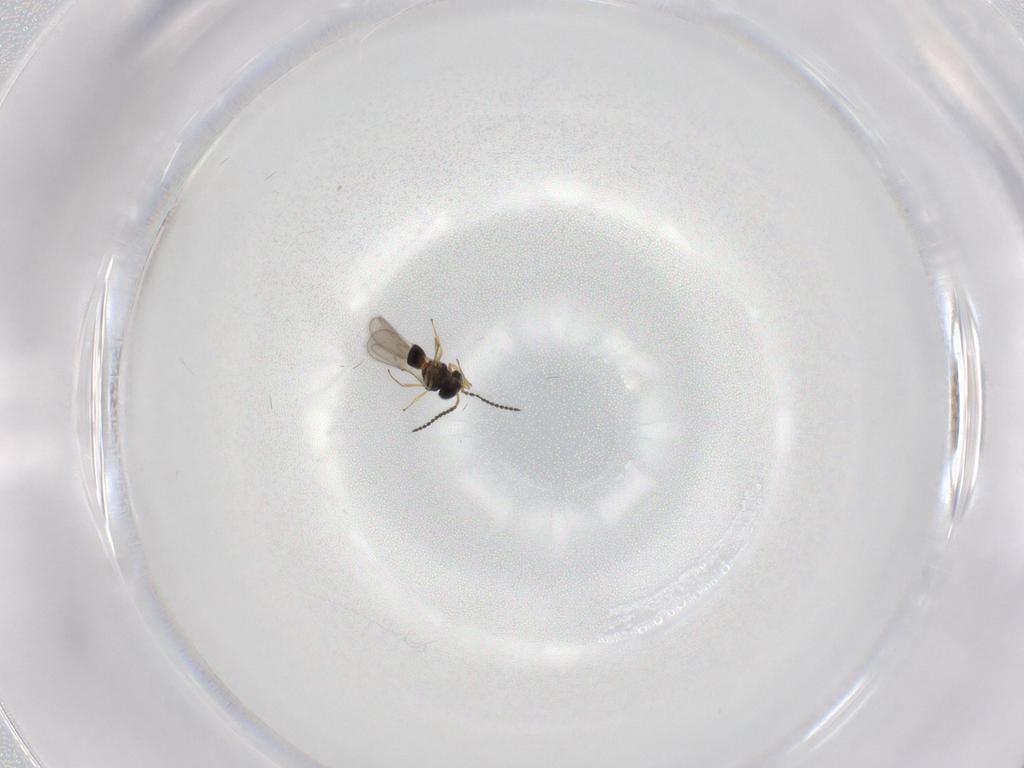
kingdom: Animalia
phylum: Arthropoda
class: Insecta
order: Hymenoptera
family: Scelionidae
